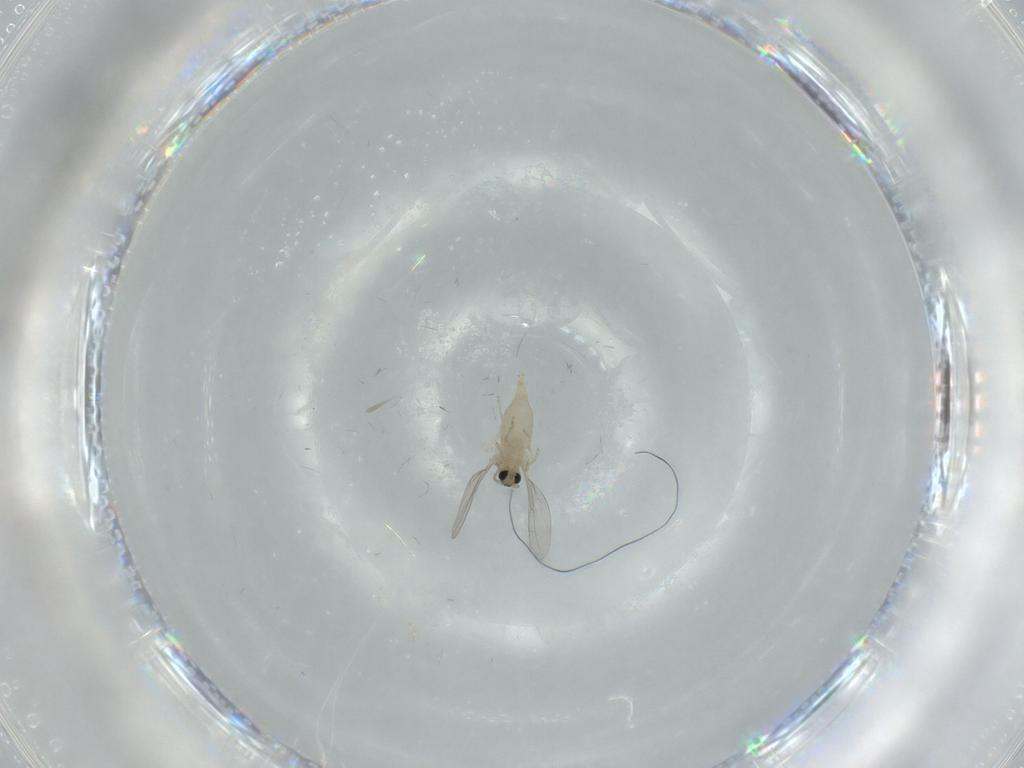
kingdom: Animalia
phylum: Arthropoda
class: Insecta
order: Diptera
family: Cecidomyiidae
